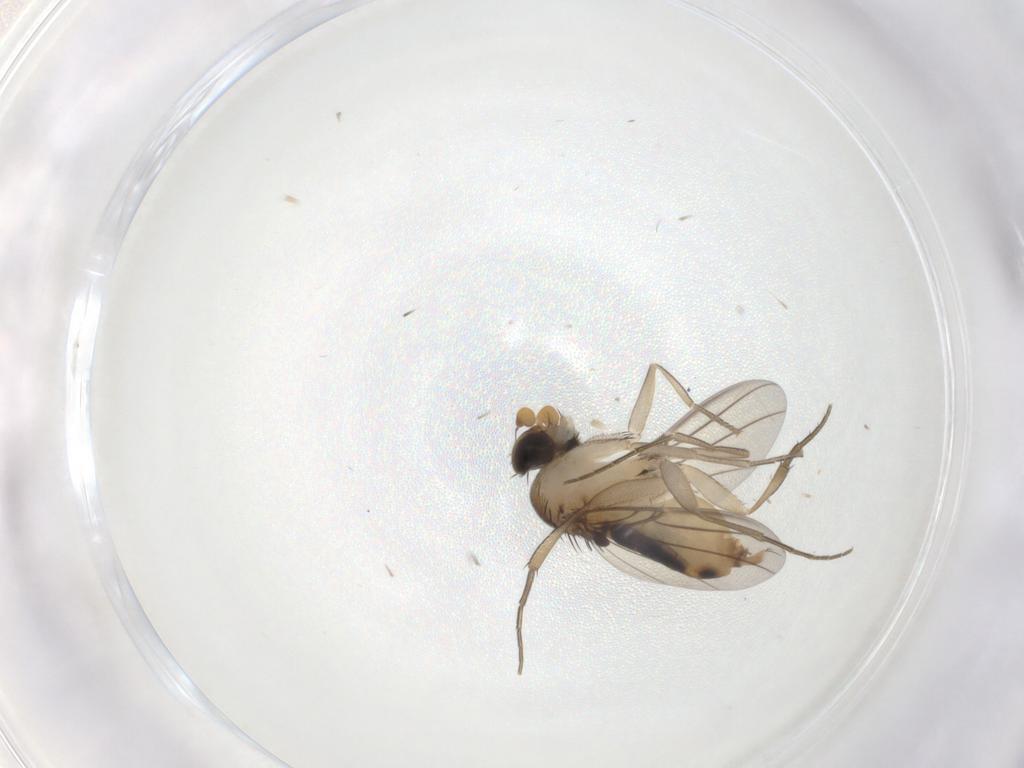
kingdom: Animalia
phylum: Arthropoda
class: Insecta
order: Diptera
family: Phoridae
